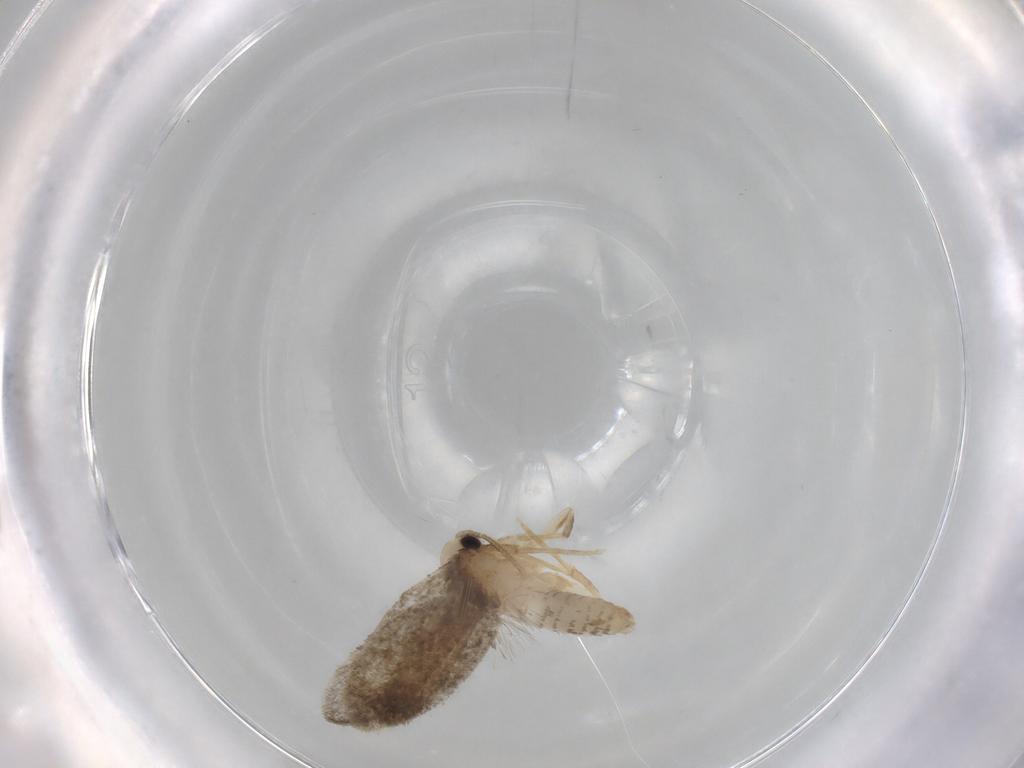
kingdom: Animalia
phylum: Arthropoda
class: Insecta
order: Lepidoptera
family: Psychidae
